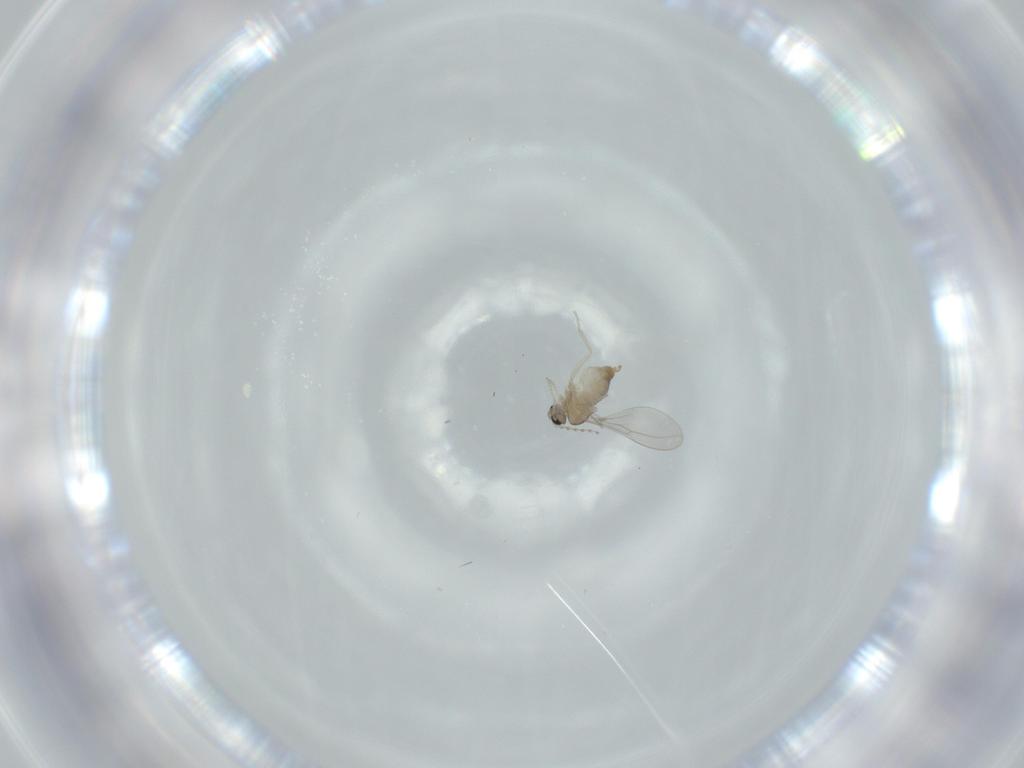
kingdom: Animalia
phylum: Arthropoda
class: Insecta
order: Diptera
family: Cecidomyiidae
